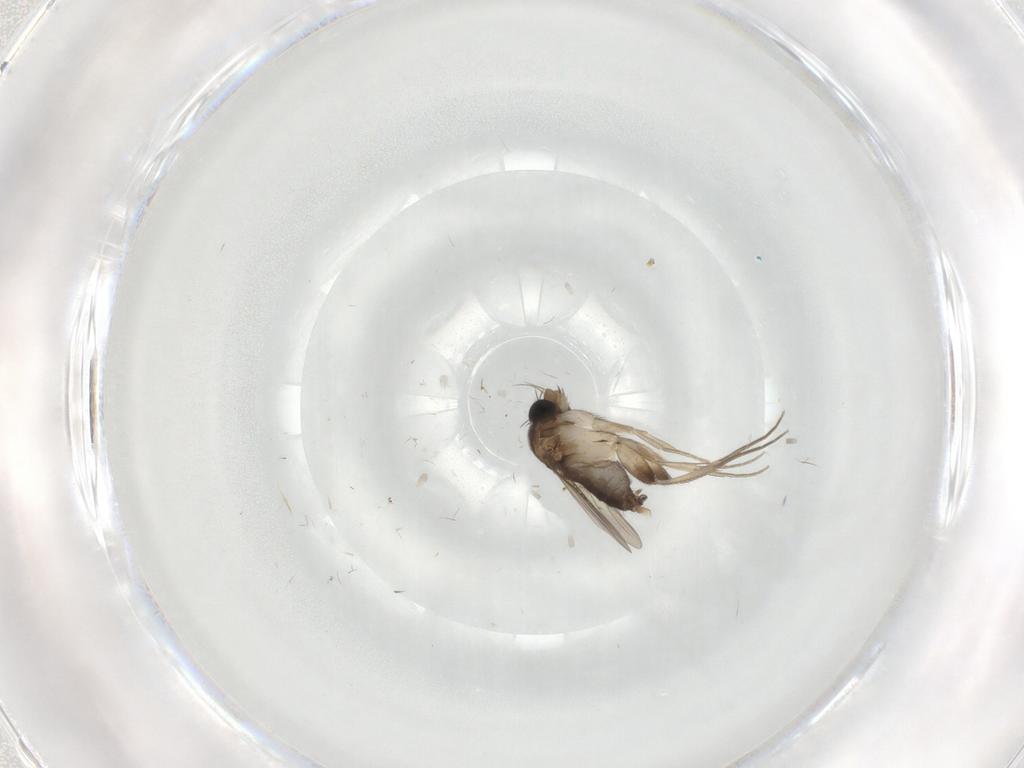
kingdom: Animalia
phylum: Arthropoda
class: Insecta
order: Diptera
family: Phoridae
